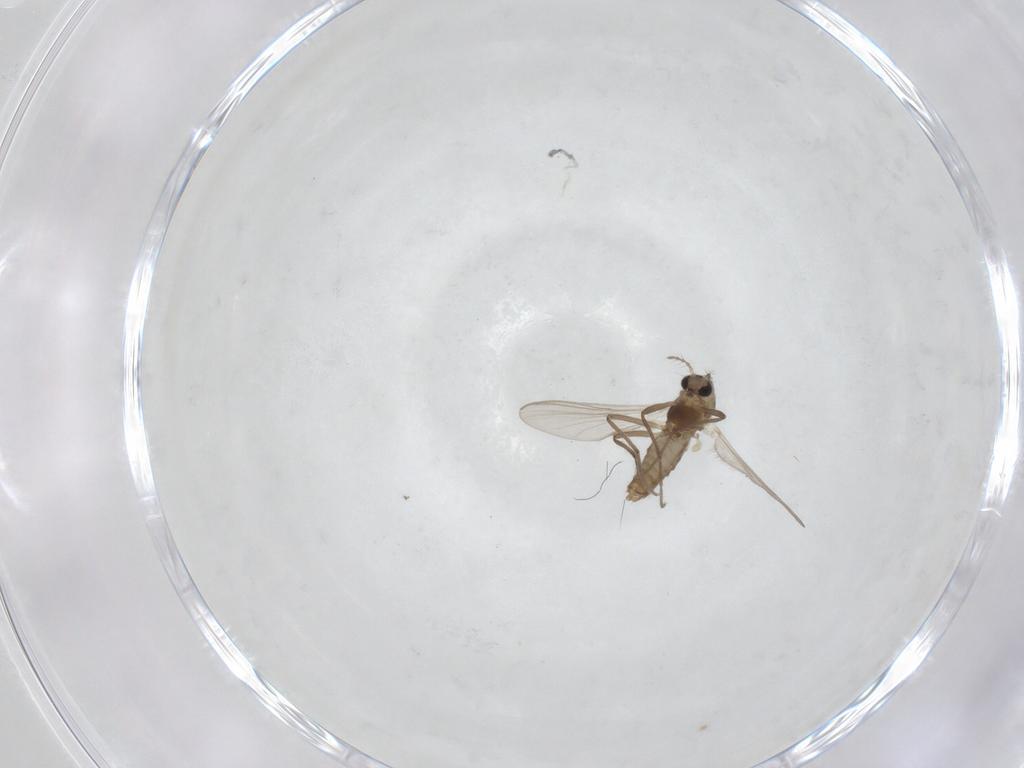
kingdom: Animalia
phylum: Arthropoda
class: Insecta
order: Diptera
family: Chironomidae
